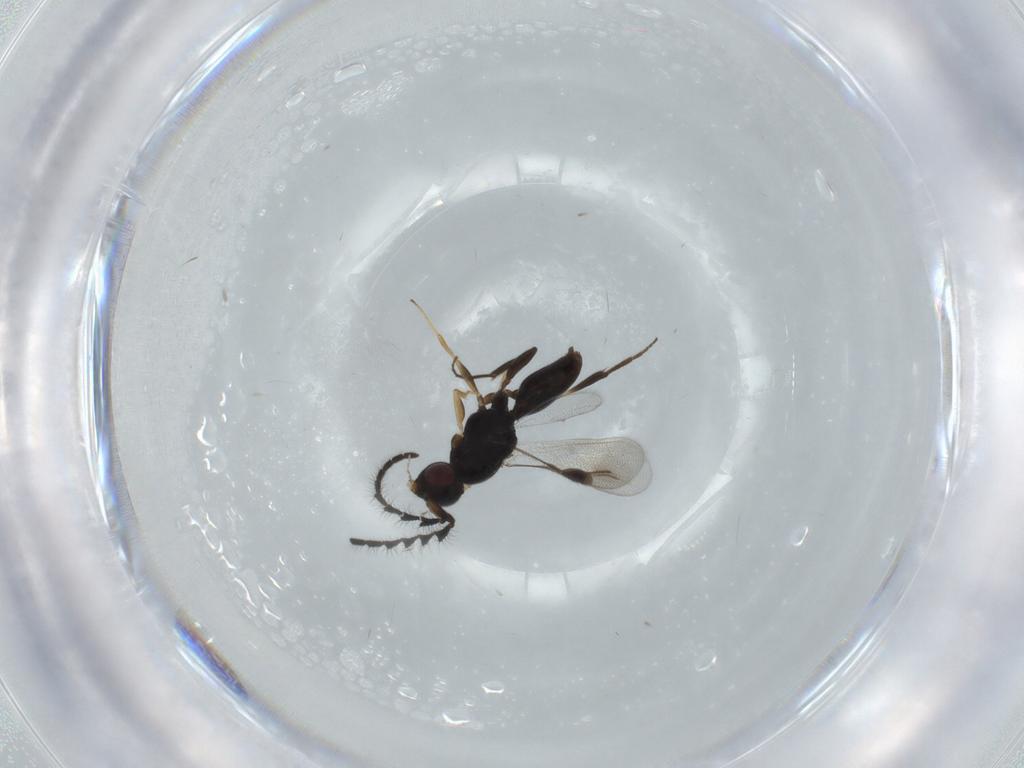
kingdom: Animalia
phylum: Arthropoda
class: Insecta
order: Hymenoptera
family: Megaspilidae
